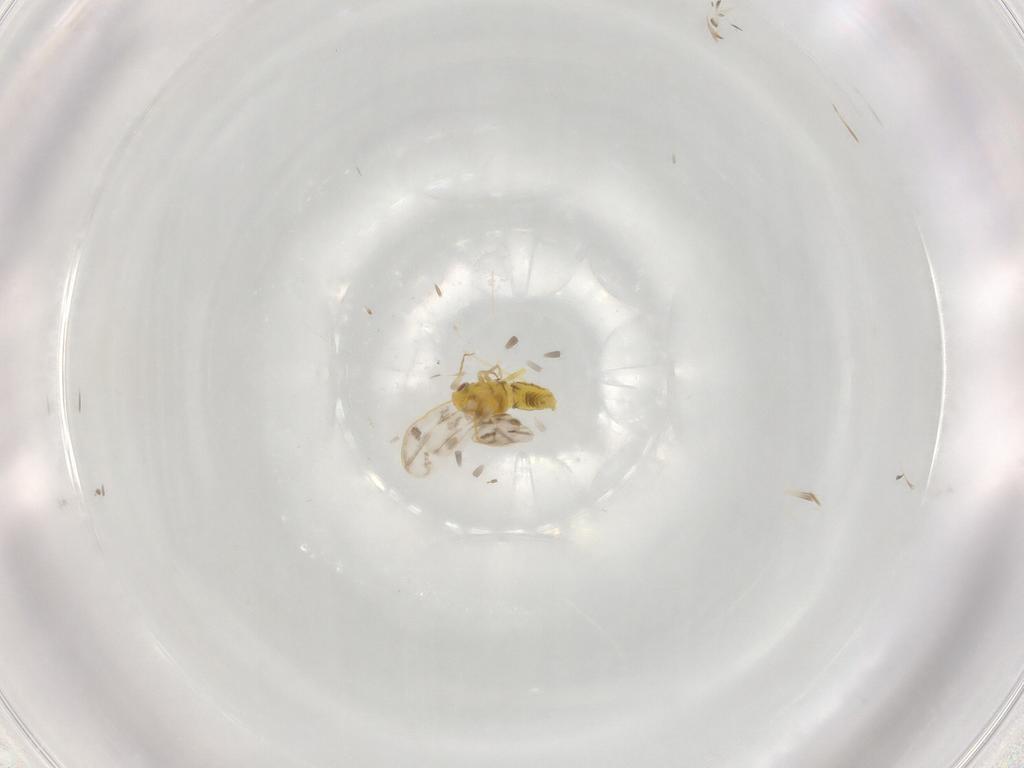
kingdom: Animalia
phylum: Arthropoda
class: Insecta
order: Hemiptera
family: Aleyrodidae
